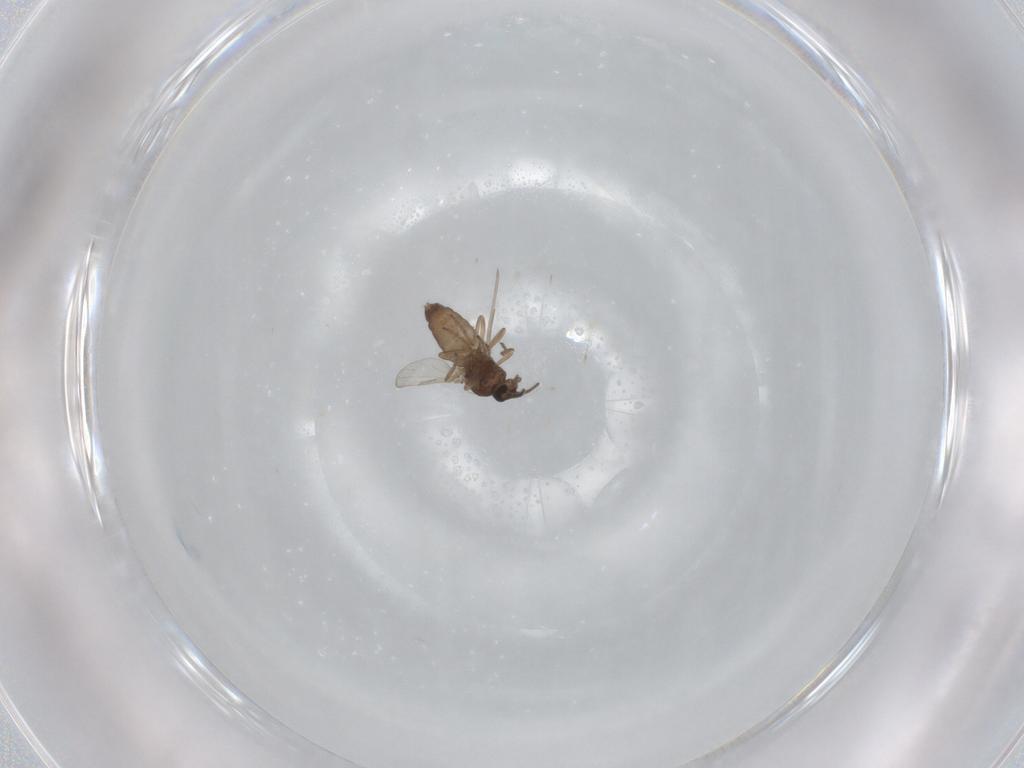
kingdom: Animalia
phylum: Arthropoda
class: Insecta
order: Diptera
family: Ceratopogonidae
